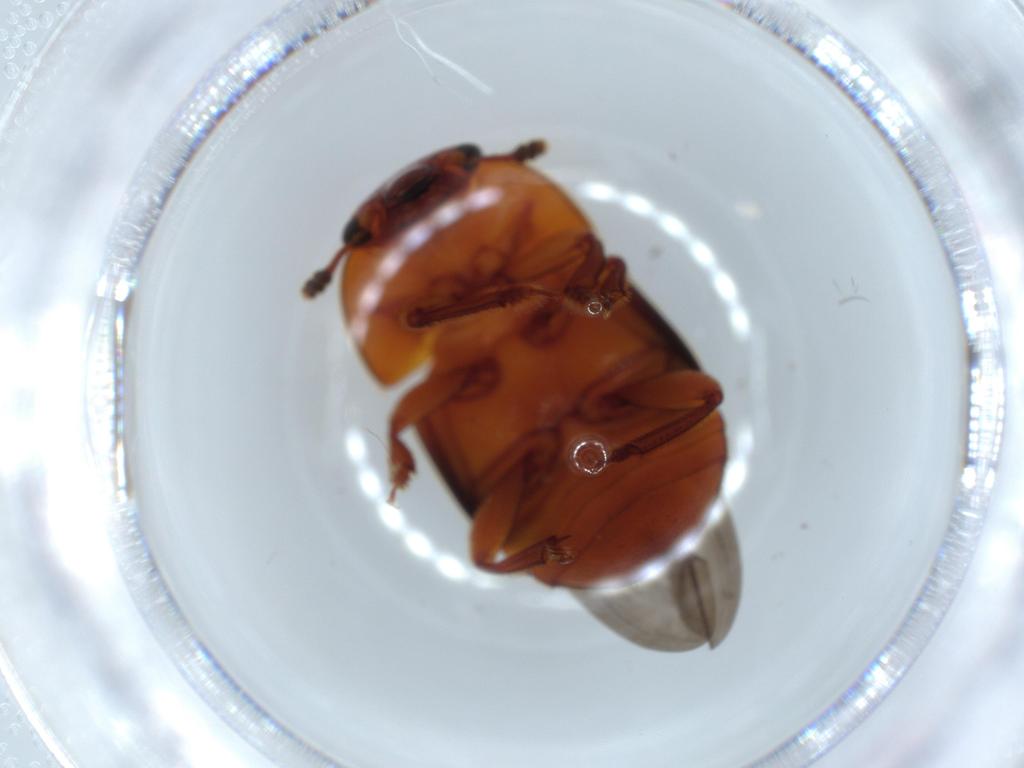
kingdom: Animalia
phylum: Arthropoda
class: Insecta
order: Coleoptera
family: Nitidulidae
